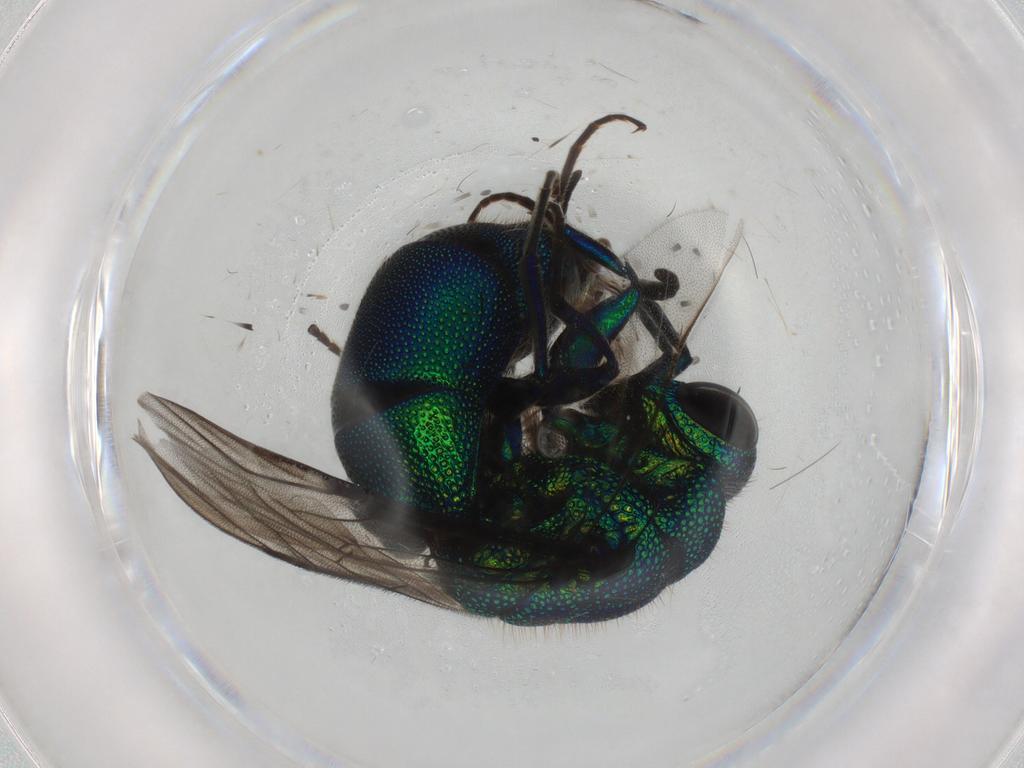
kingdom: Animalia
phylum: Arthropoda
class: Insecta
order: Hymenoptera
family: Chrysididae
